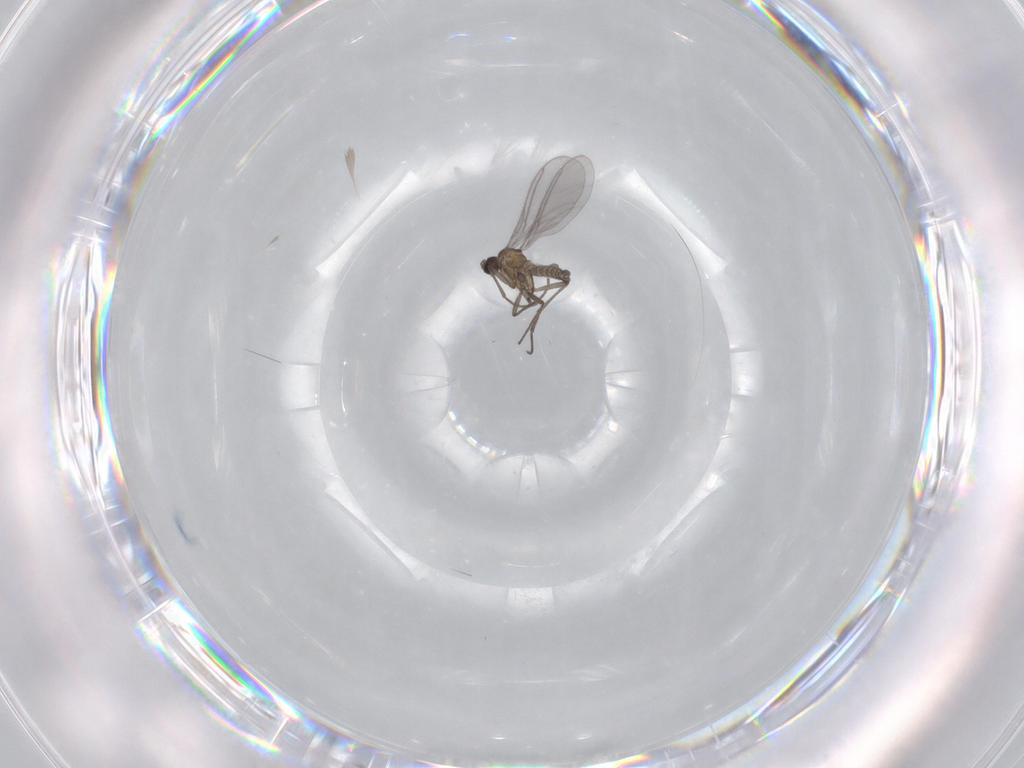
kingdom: Animalia
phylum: Arthropoda
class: Insecta
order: Diptera
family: Sciaridae
